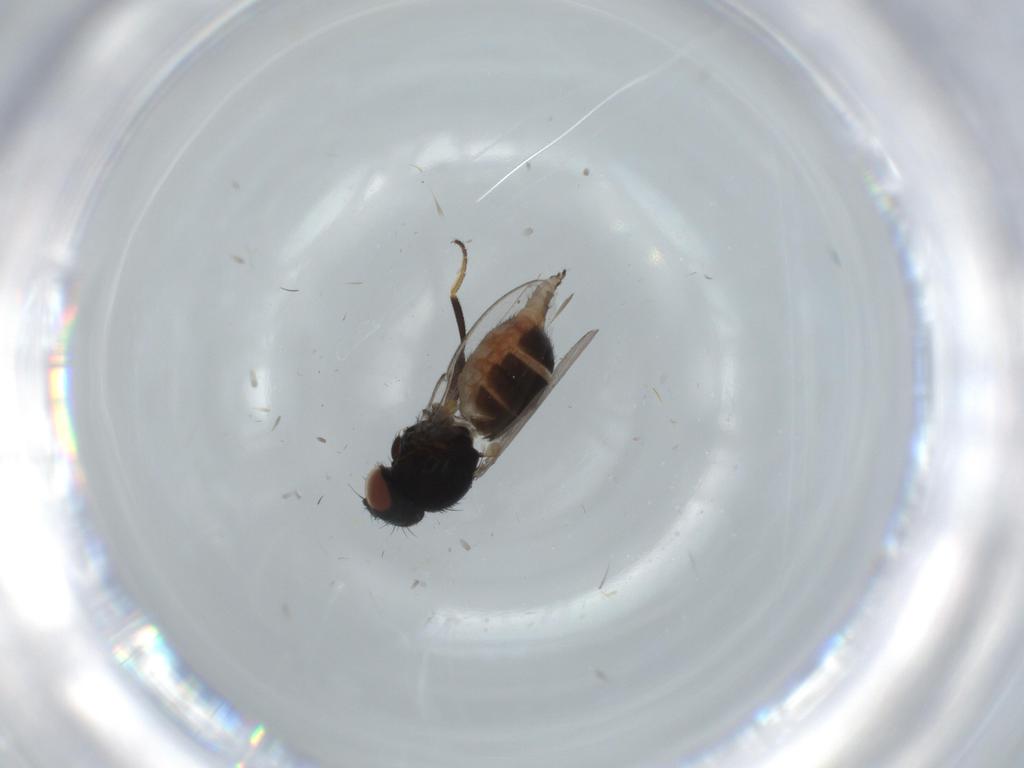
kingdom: Animalia
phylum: Arthropoda
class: Insecta
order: Diptera
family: Milichiidae
